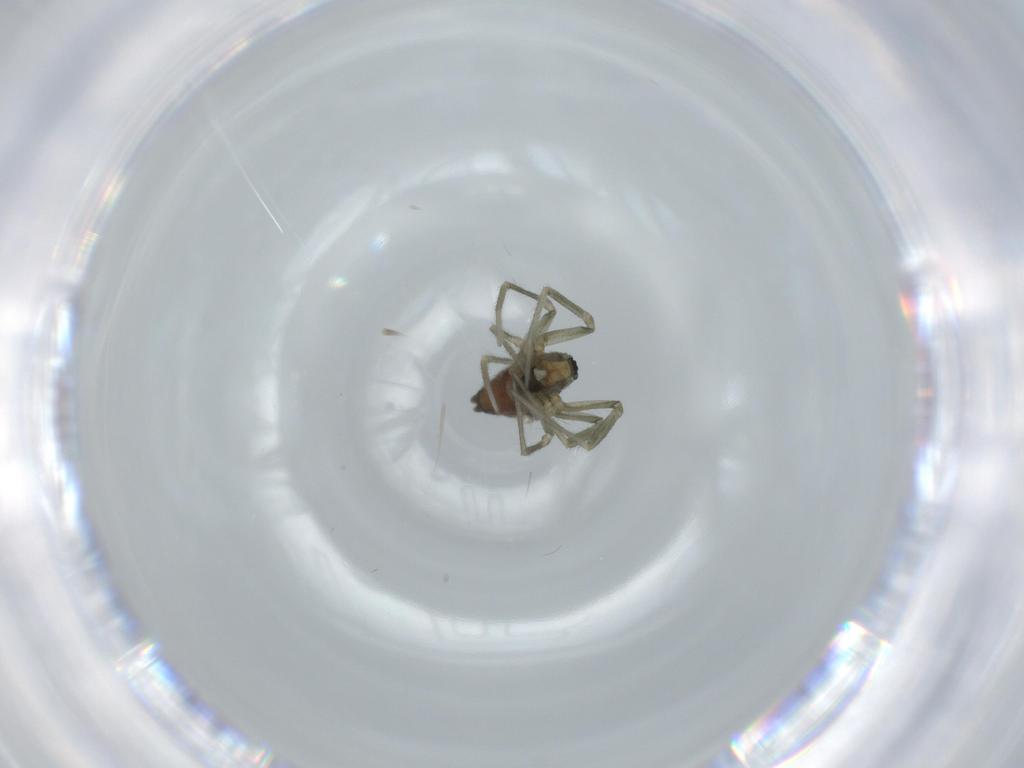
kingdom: Animalia
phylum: Arthropoda
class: Arachnida
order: Araneae
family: Linyphiidae
